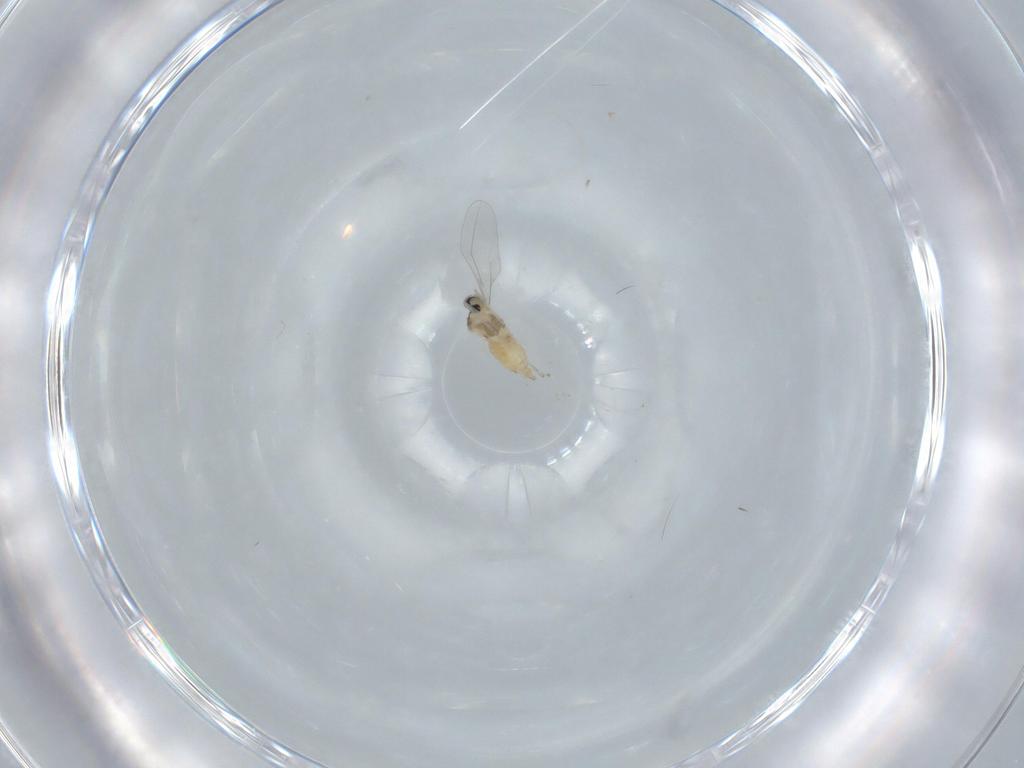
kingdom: Animalia
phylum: Arthropoda
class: Insecta
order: Diptera
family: Cecidomyiidae
